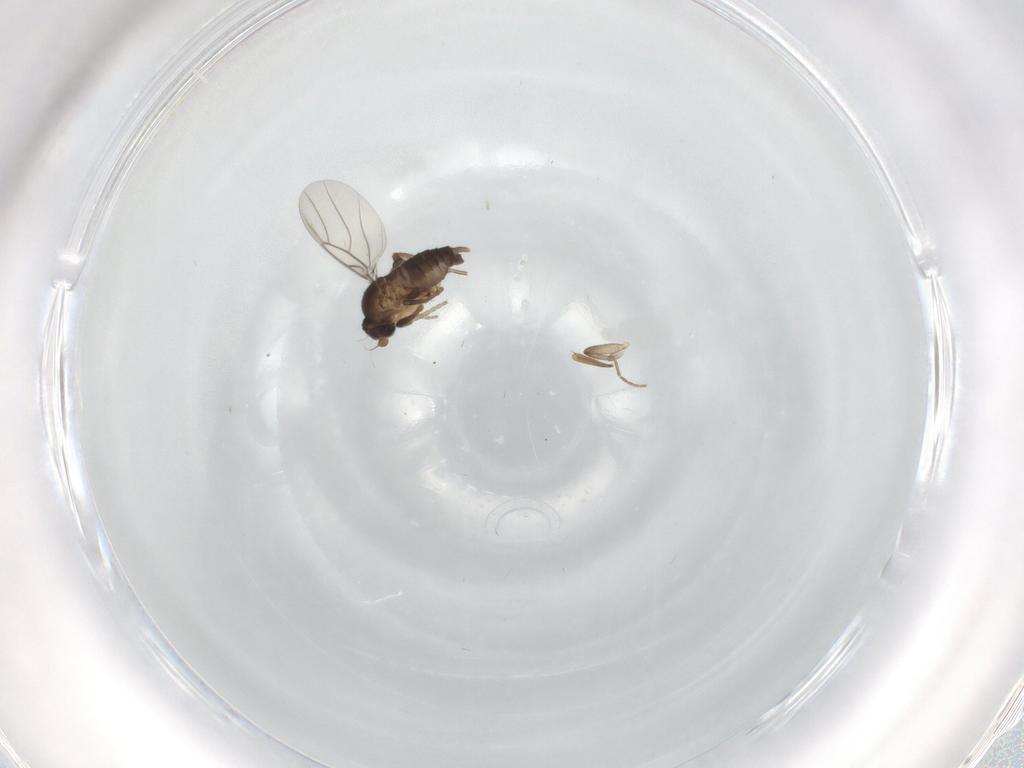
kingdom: Animalia
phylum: Arthropoda
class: Insecta
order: Diptera
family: Phoridae
